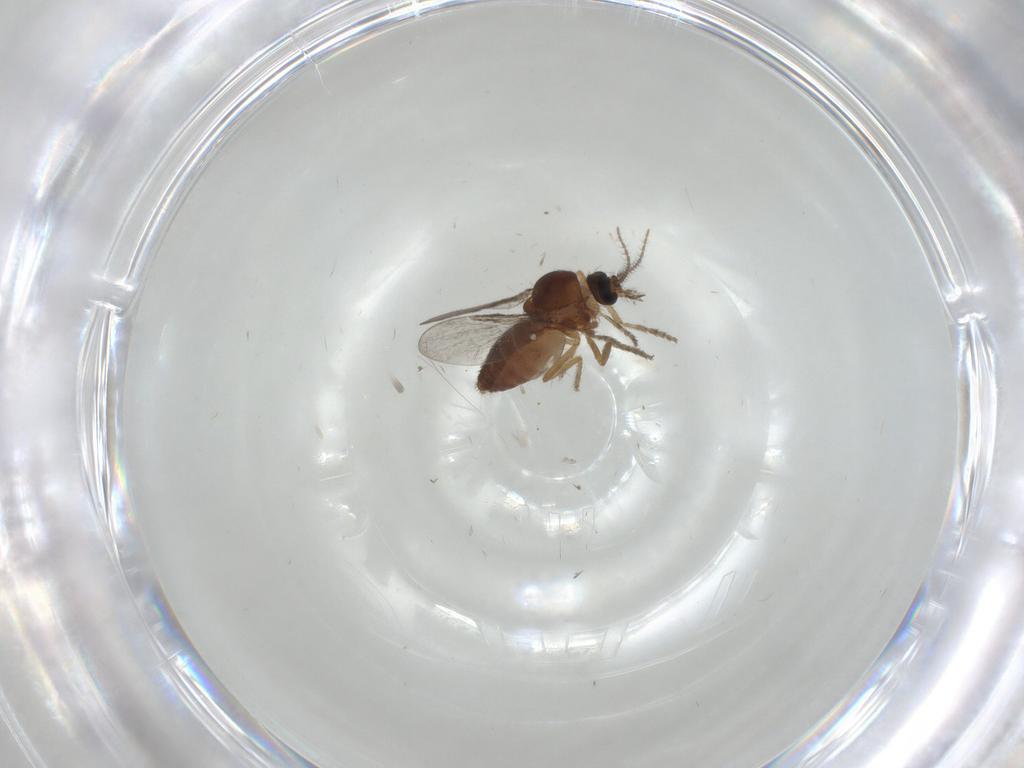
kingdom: Animalia
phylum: Arthropoda
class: Insecta
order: Diptera
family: Ceratopogonidae
